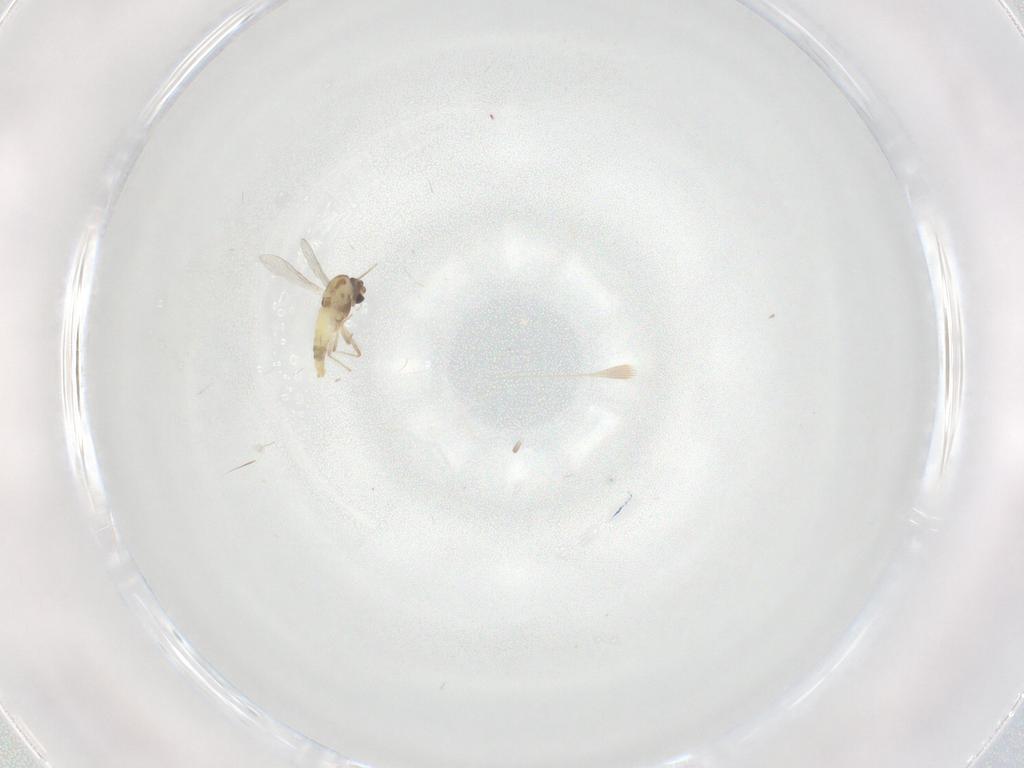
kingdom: Animalia
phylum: Arthropoda
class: Insecta
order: Diptera
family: Chironomidae
